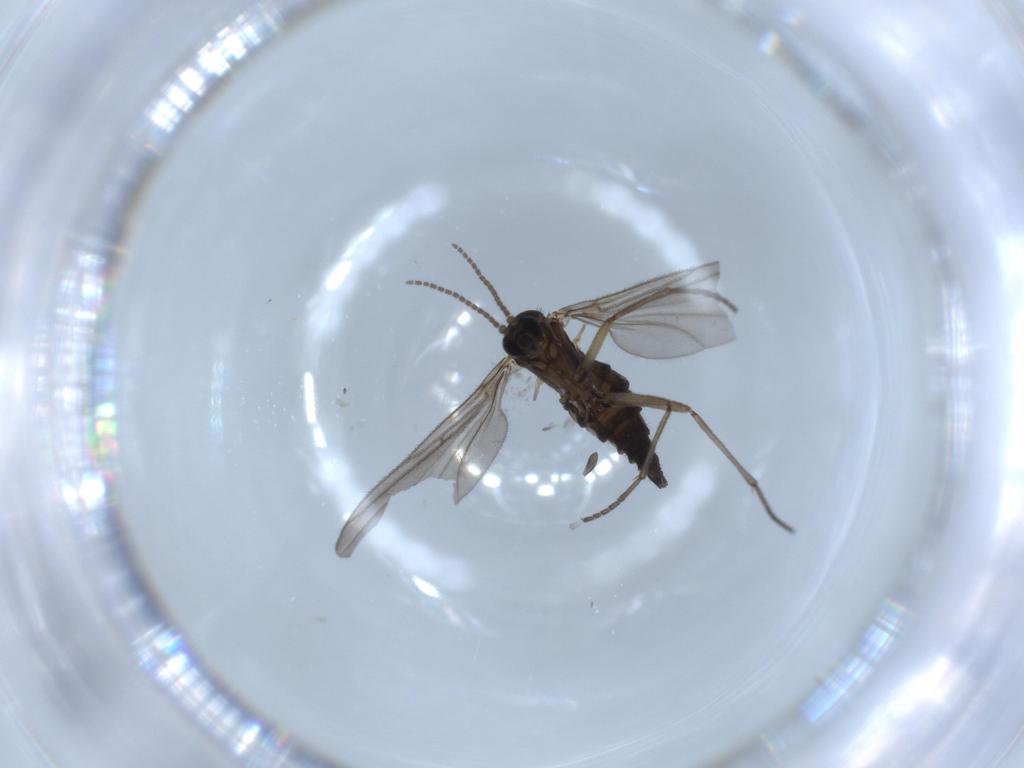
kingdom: Animalia
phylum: Arthropoda
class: Insecta
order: Diptera
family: Sciaridae
